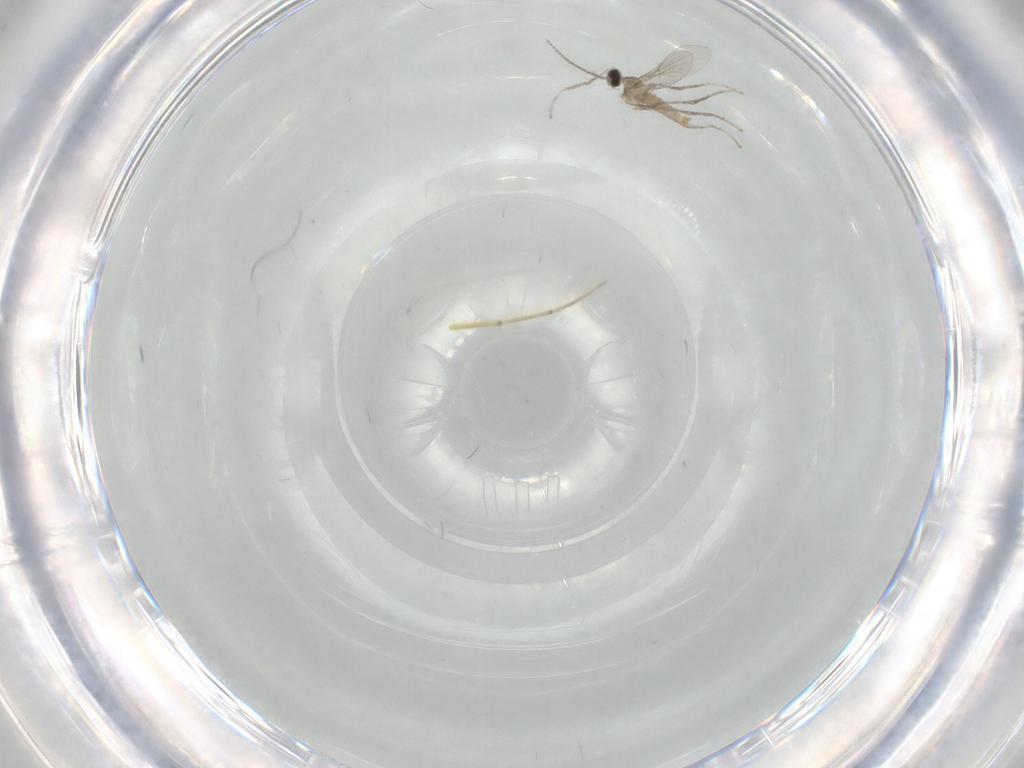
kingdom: Animalia
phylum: Arthropoda
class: Insecta
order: Diptera
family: Cecidomyiidae
